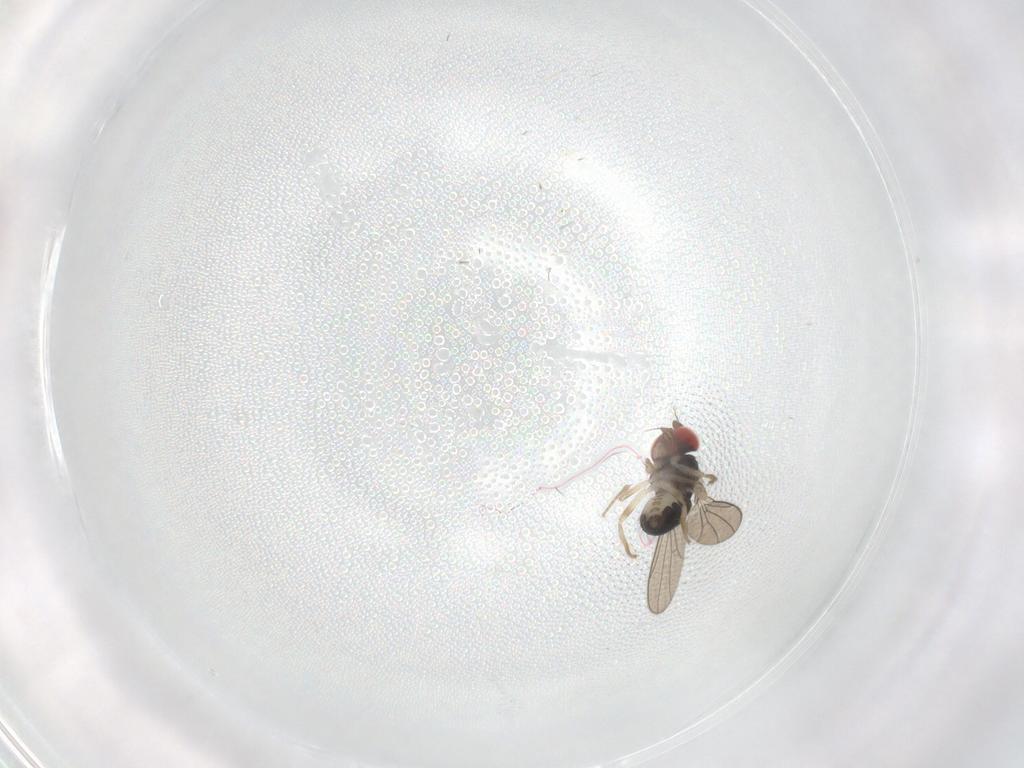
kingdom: Animalia
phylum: Arthropoda
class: Insecta
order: Diptera
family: Drosophilidae
